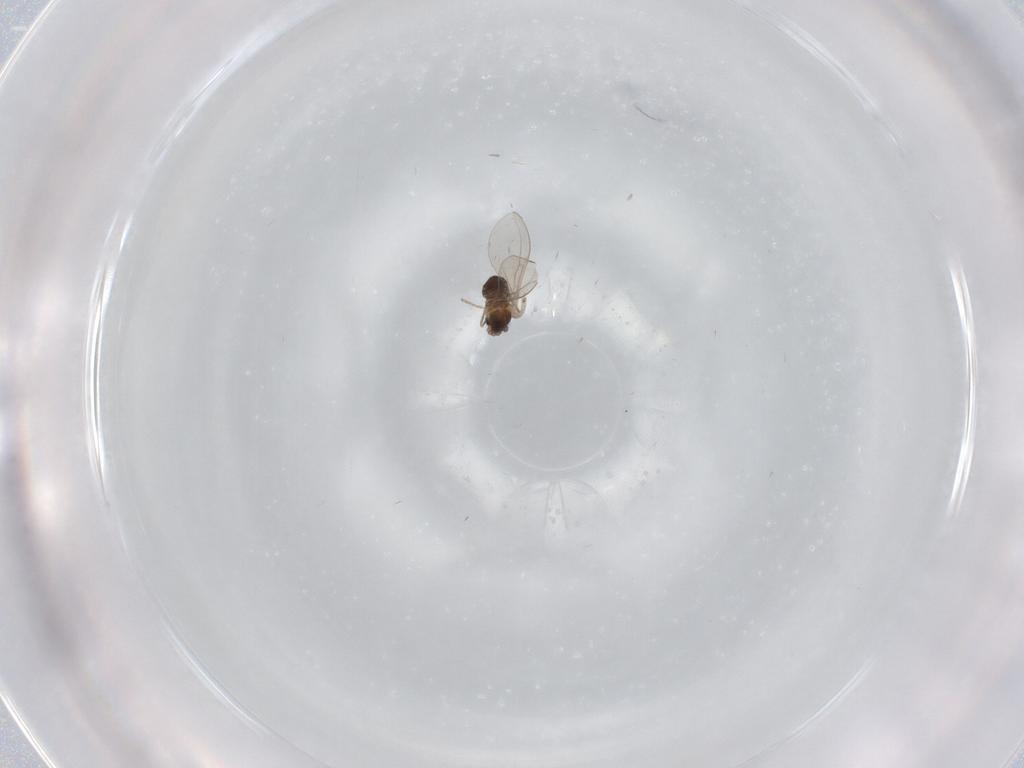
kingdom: Animalia
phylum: Arthropoda
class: Insecta
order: Diptera
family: Cecidomyiidae
